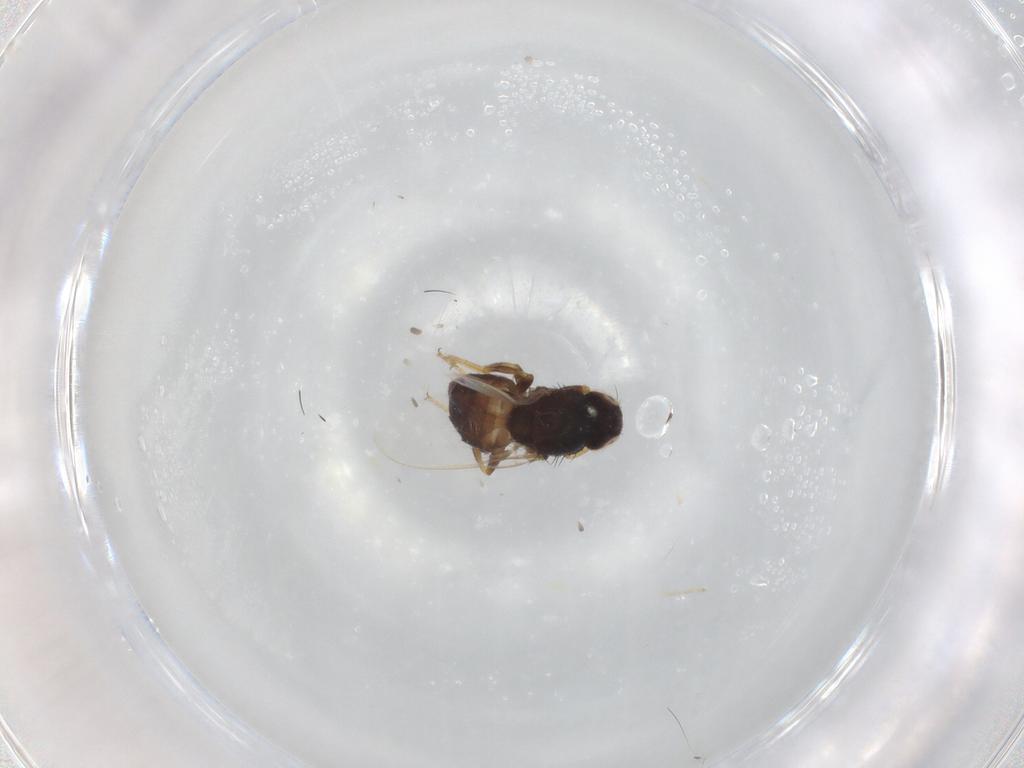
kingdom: Animalia
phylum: Arthropoda
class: Insecta
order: Diptera
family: Chloropidae
